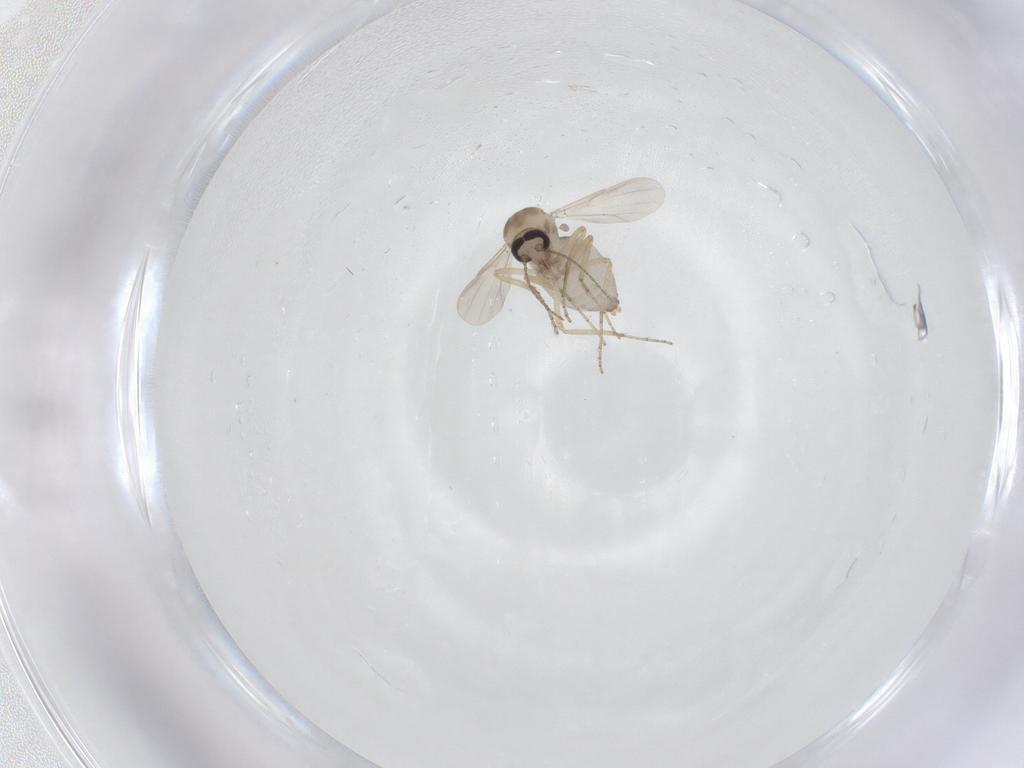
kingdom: Animalia
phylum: Arthropoda
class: Insecta
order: Diptera
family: Ceratopogonidae
